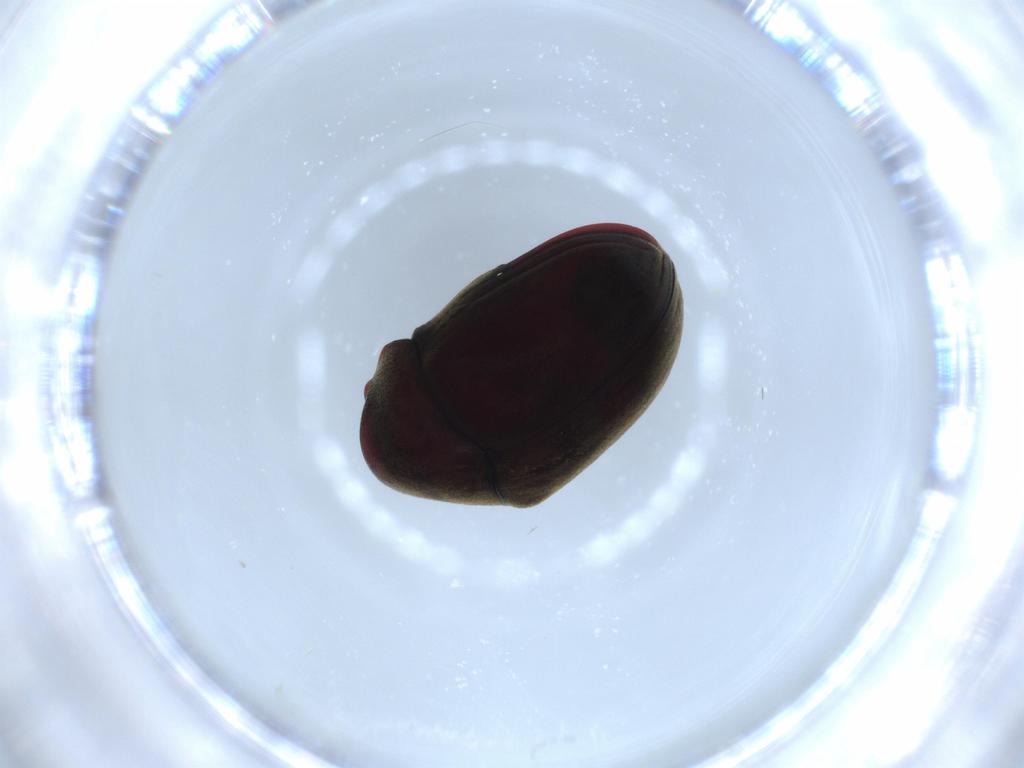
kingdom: Animalia
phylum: Arthropoda
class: Insecta
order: Coleoptera
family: Ptinidae
